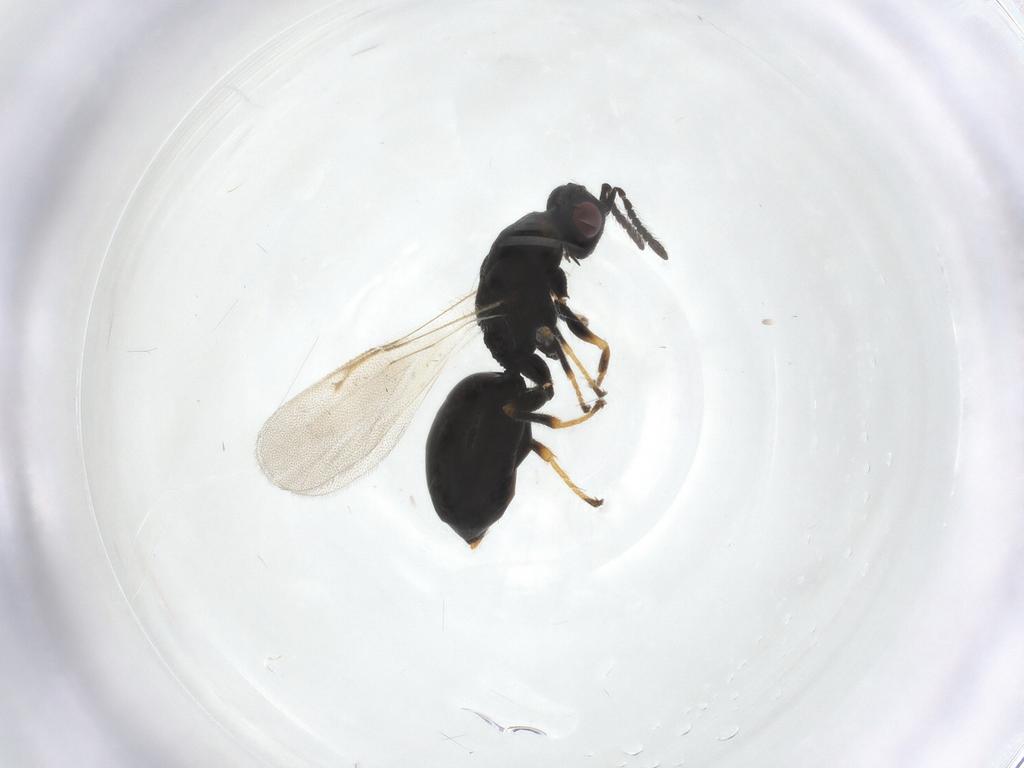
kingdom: Animalia
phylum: Arthropoda
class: Insecta
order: Hymenoptera
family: Eurytomidae
